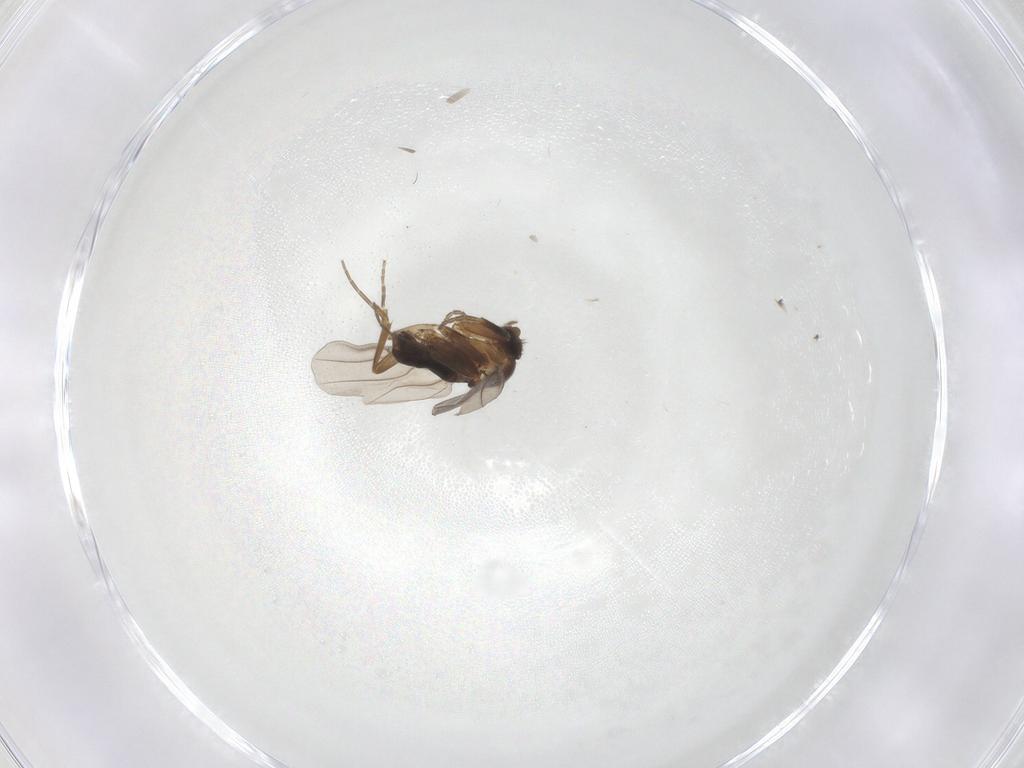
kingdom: Animalia
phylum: Arthropoda
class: Insecta
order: Diptera
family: Phoridae
